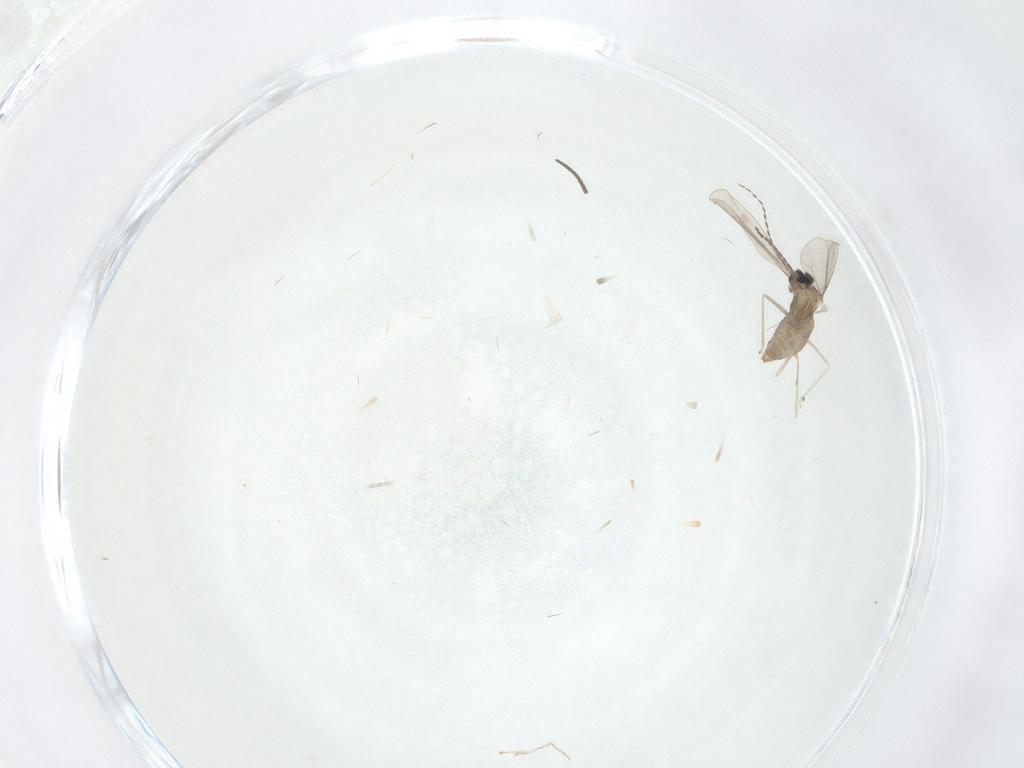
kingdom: Animalia
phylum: Arthropoda
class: Insecta
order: Diptera
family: Cecidomyiidae
